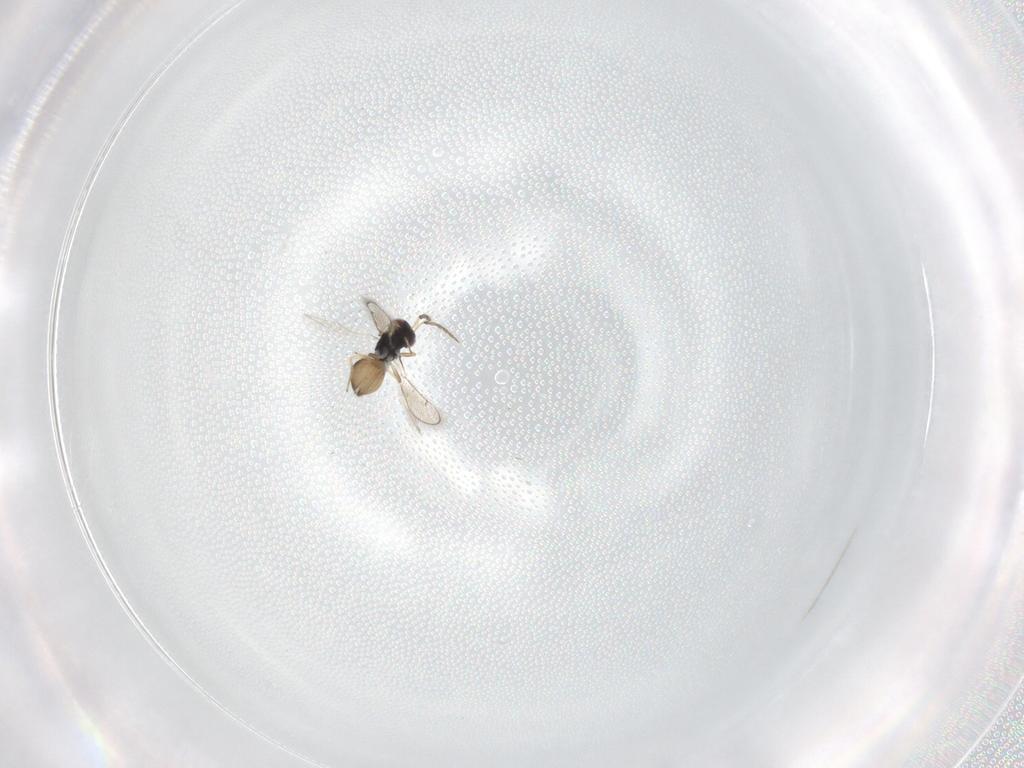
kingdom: Animalia
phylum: Arthropoda
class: Insecta
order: Hymenoptera
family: Eulophidae
